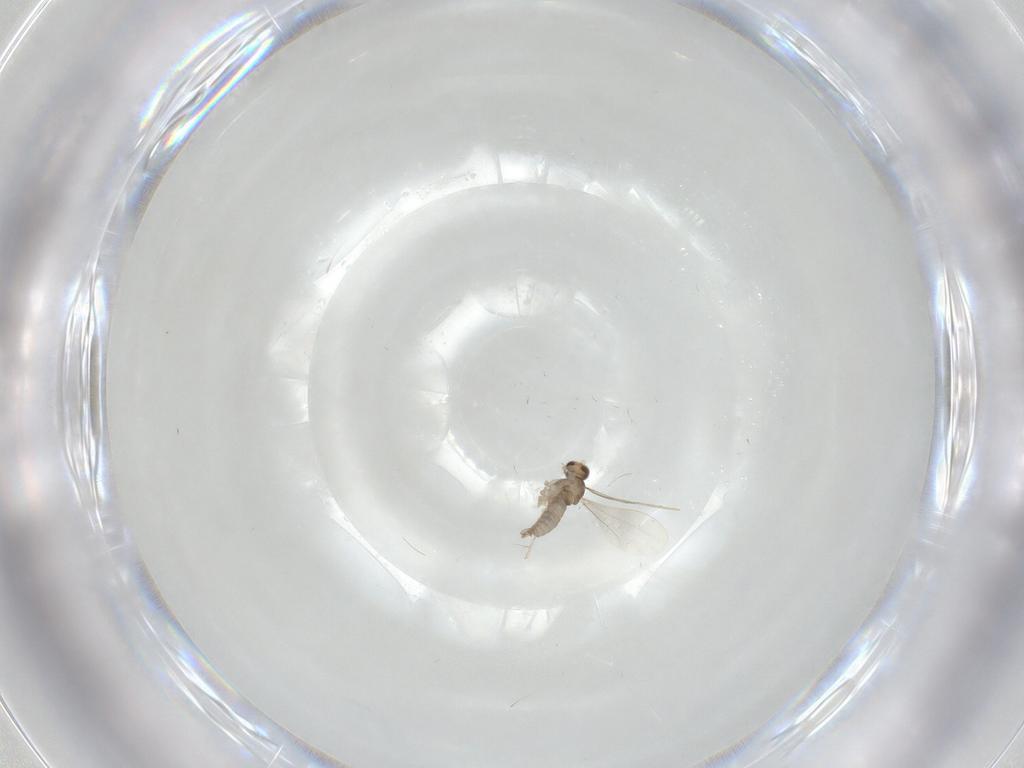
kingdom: Animalia
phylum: Arthropoda
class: Insecta
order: Diptera
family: Cecidomyiidae
